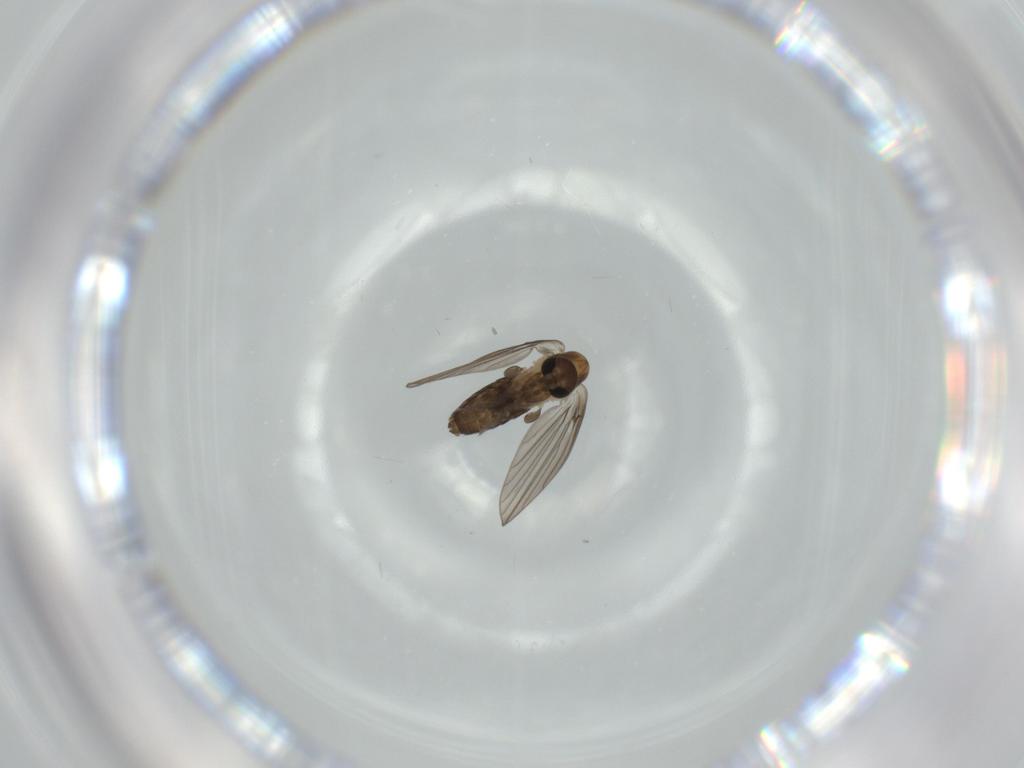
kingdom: Animalia
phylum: Arthropoda
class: Insecta
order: Diptera
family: Psychodidae
